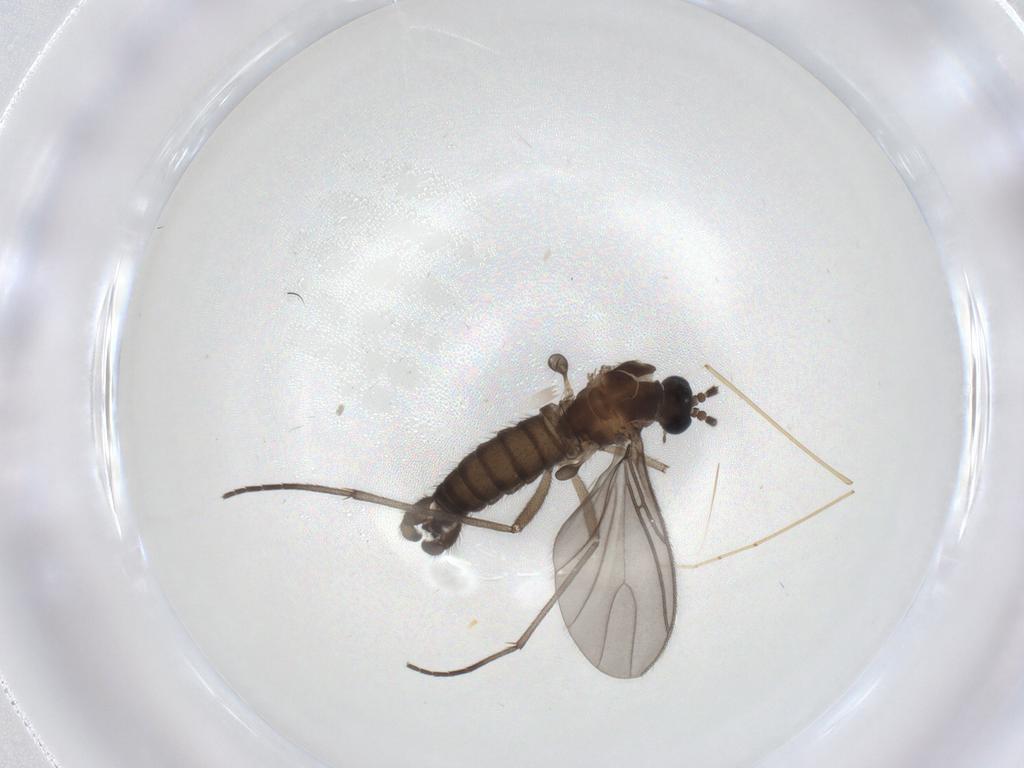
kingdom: Animalia
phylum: Arthropoda
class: Insecta
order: Diptera
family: Sciaridae
